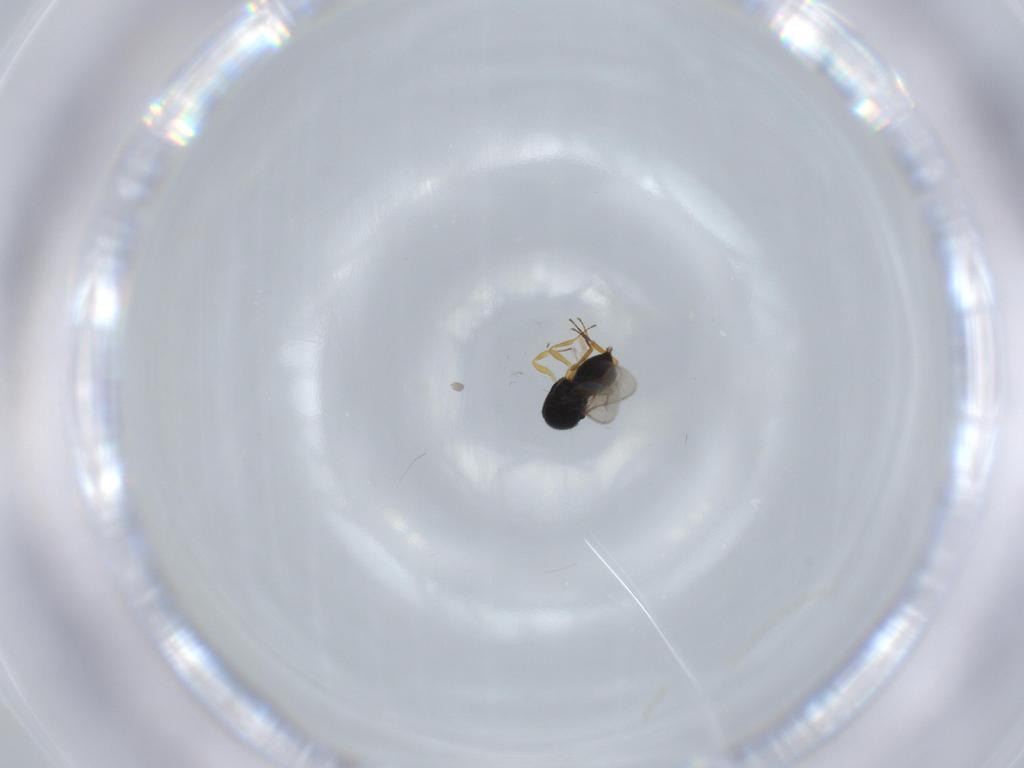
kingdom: Animalia
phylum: Arthropoda
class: Insecta
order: Hymenoptera
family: Scelionidae
